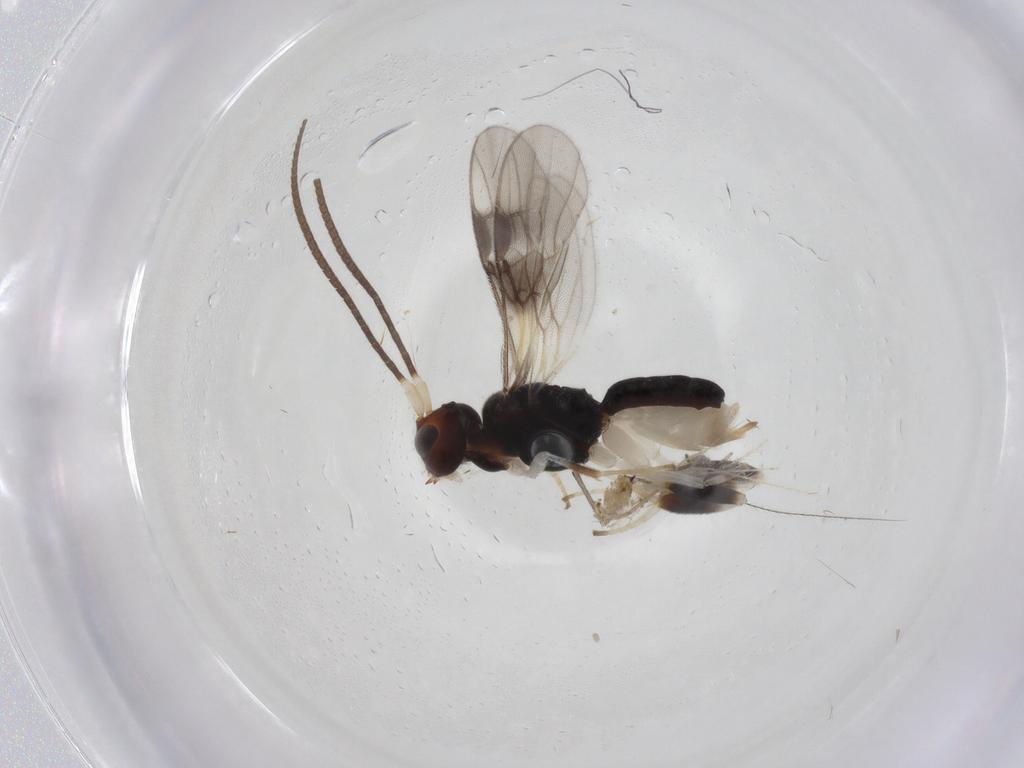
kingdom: Animalia
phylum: Arthropoda
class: Insecta
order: Hymenoptera
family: Braconidae
